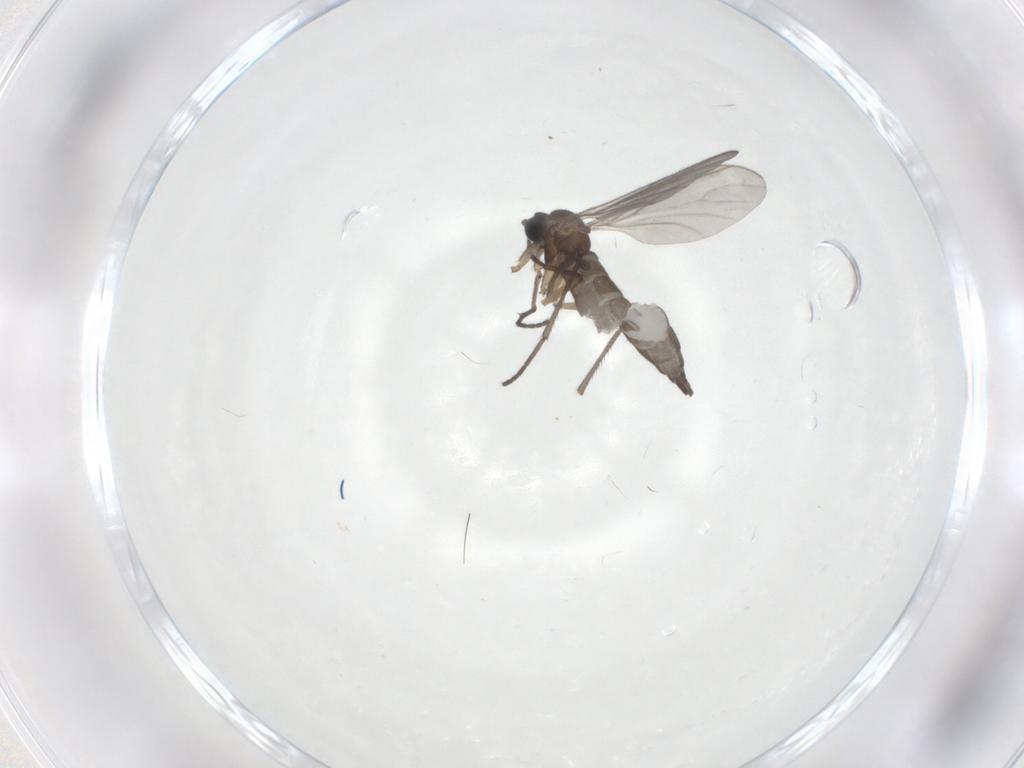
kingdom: Animalia
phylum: Arthropoda
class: Insecta
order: Diptera
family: Sciaridae
